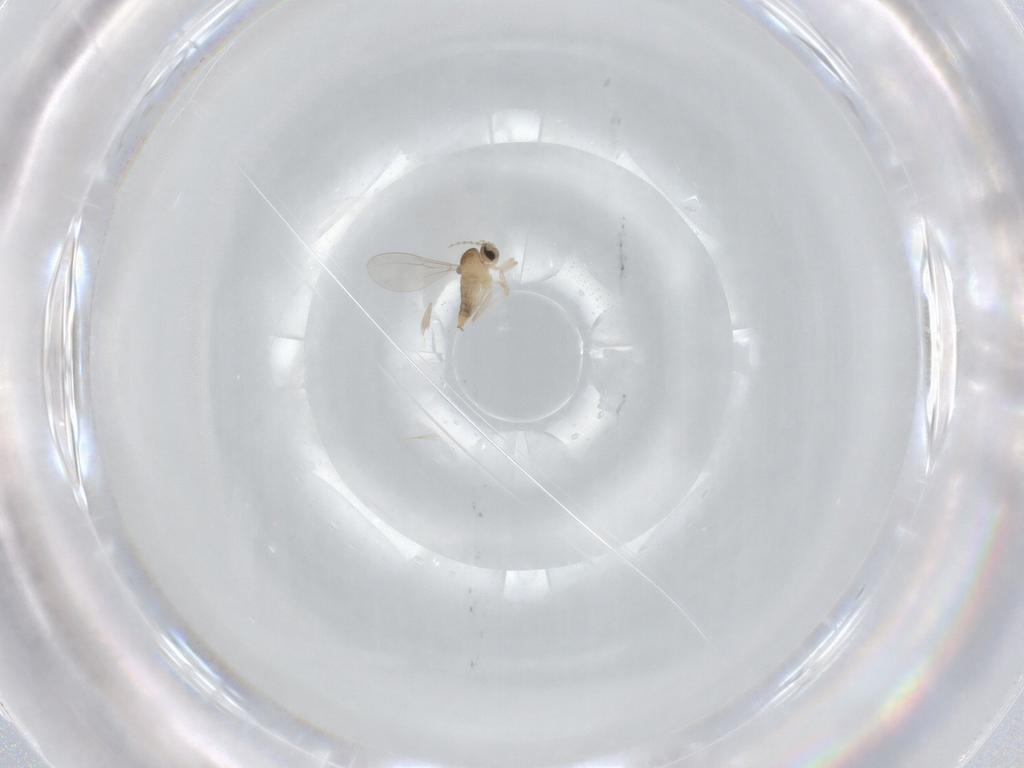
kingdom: Animalia
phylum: Arthropoda
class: Insecta
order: Diptera
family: Cecidomyiidae
